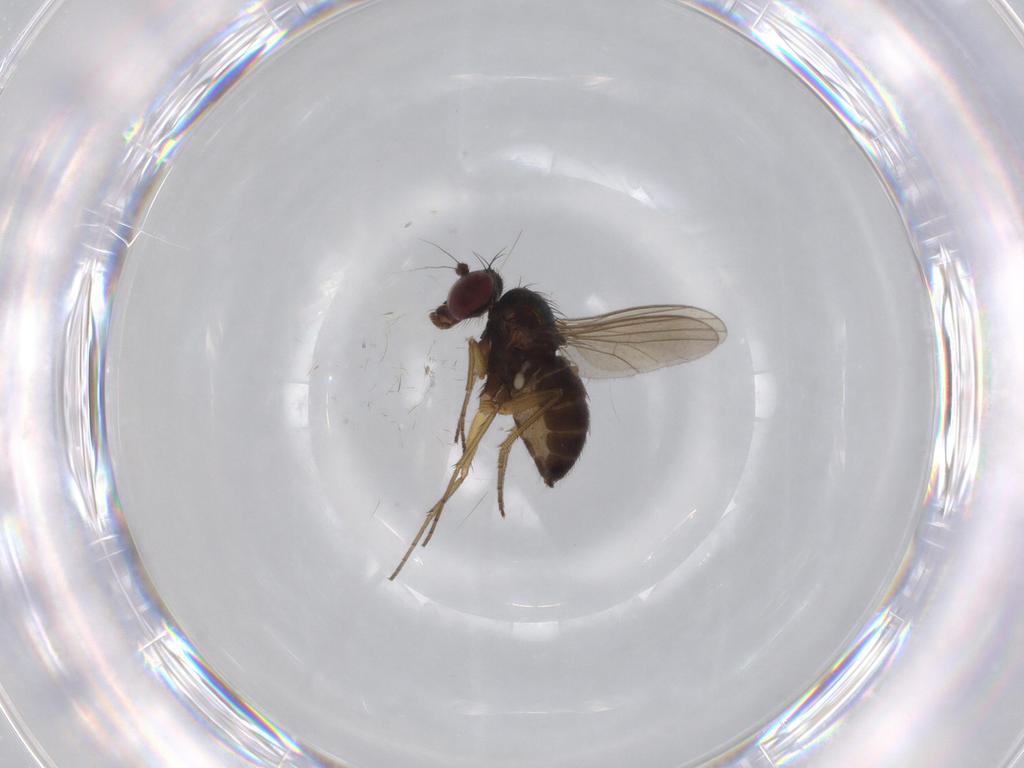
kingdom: Animalia
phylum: Arthropoda
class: Insecta
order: Diptera
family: Dolichopodidae
